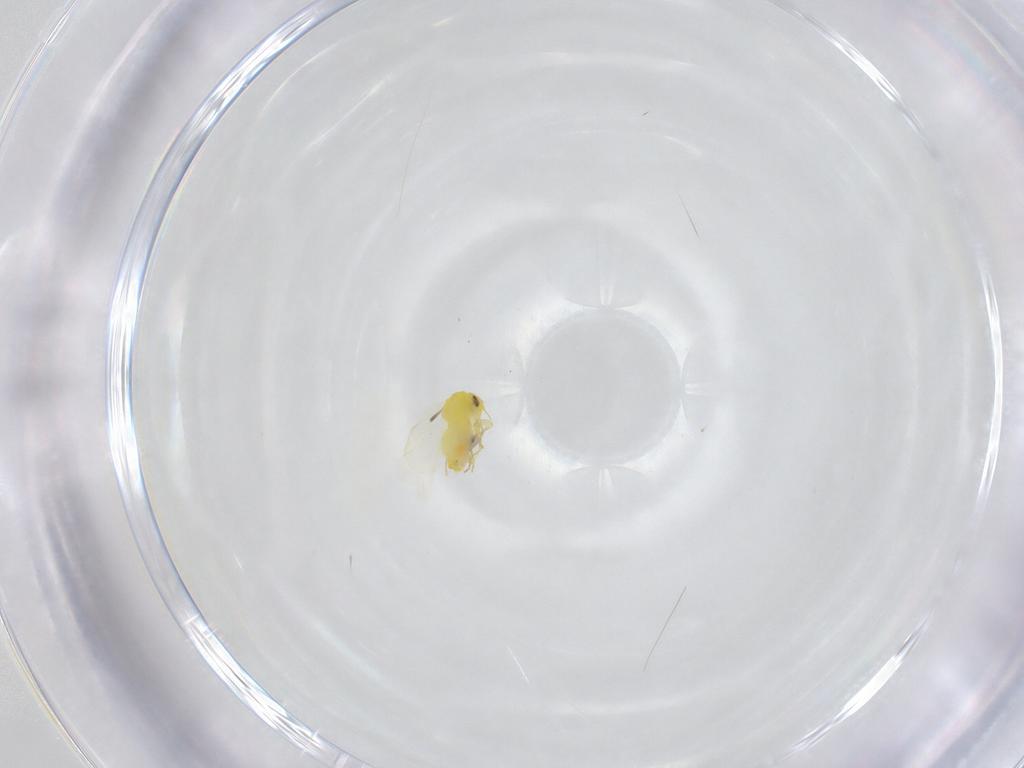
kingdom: Animalia
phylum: Arthropoda
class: Insecta
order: Hemiptera
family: Aleyrodidae
